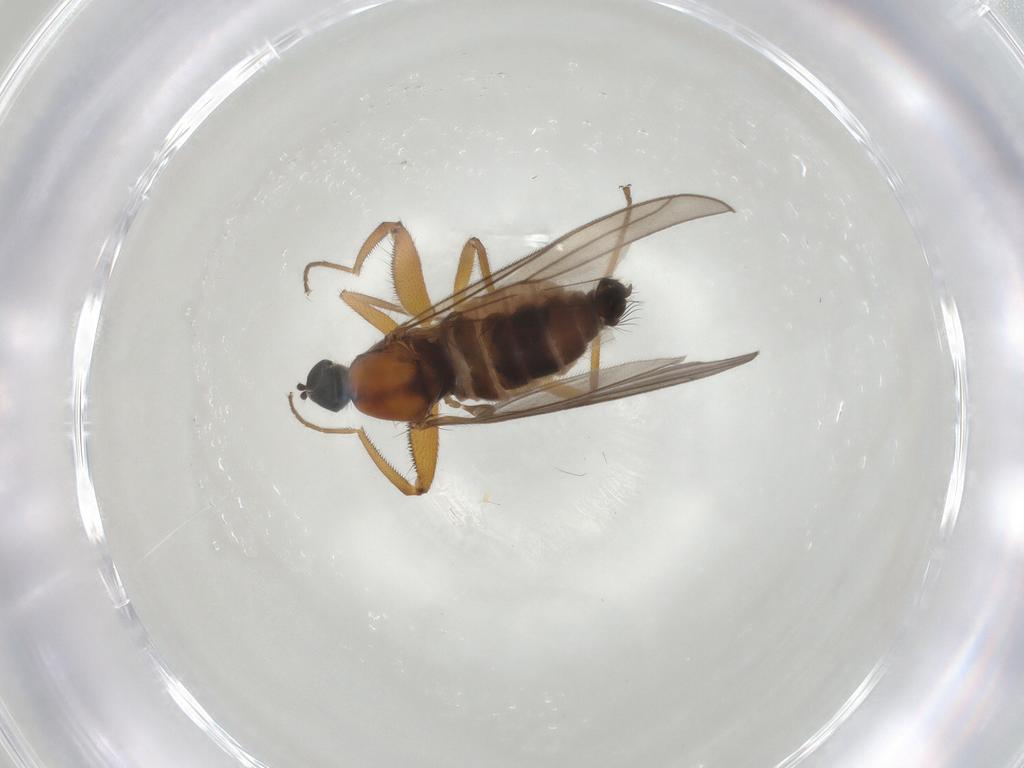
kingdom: Animalia
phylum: Arthropoda
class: Insecta
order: Diptera
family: Hybotidae
